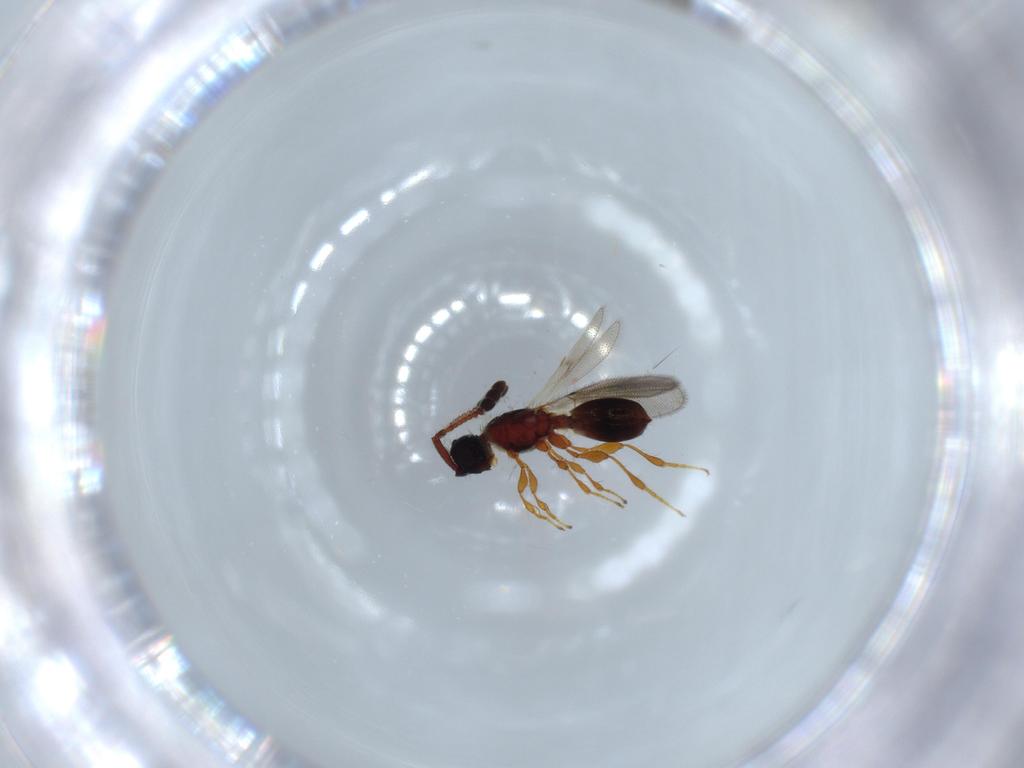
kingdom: Animalia
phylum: Arthropoda
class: Insecta
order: Hymenoptera
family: Diapriidae
